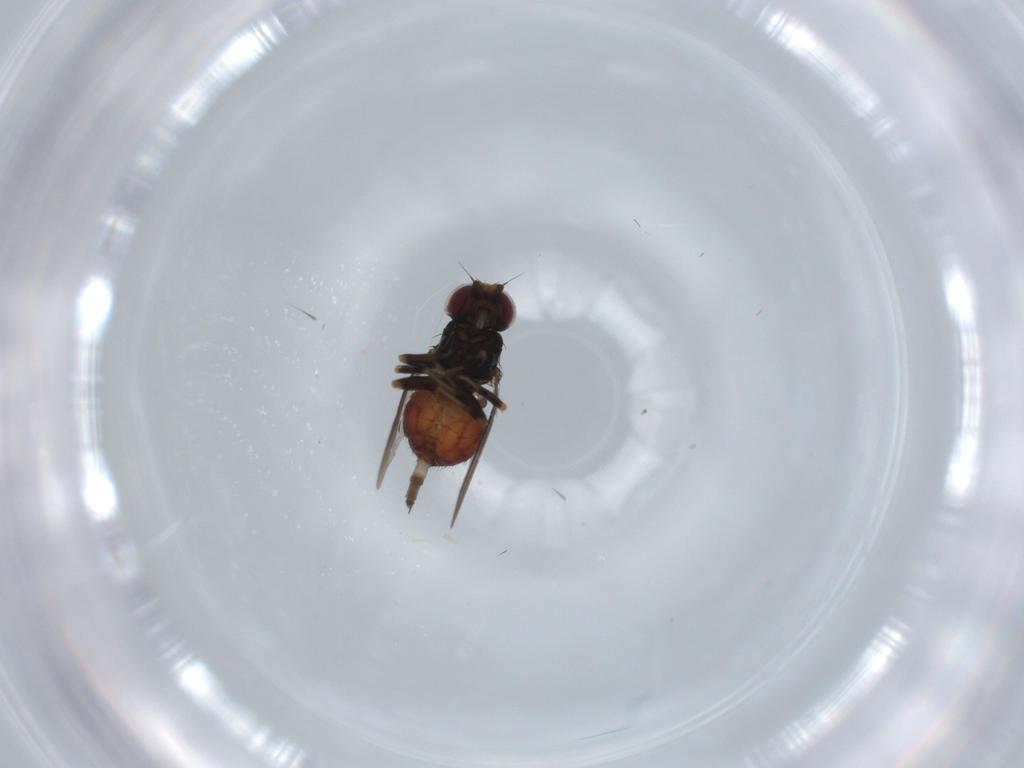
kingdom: Animalia
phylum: Arthropoda
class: Insecta
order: Diptera
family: Chloropidae
